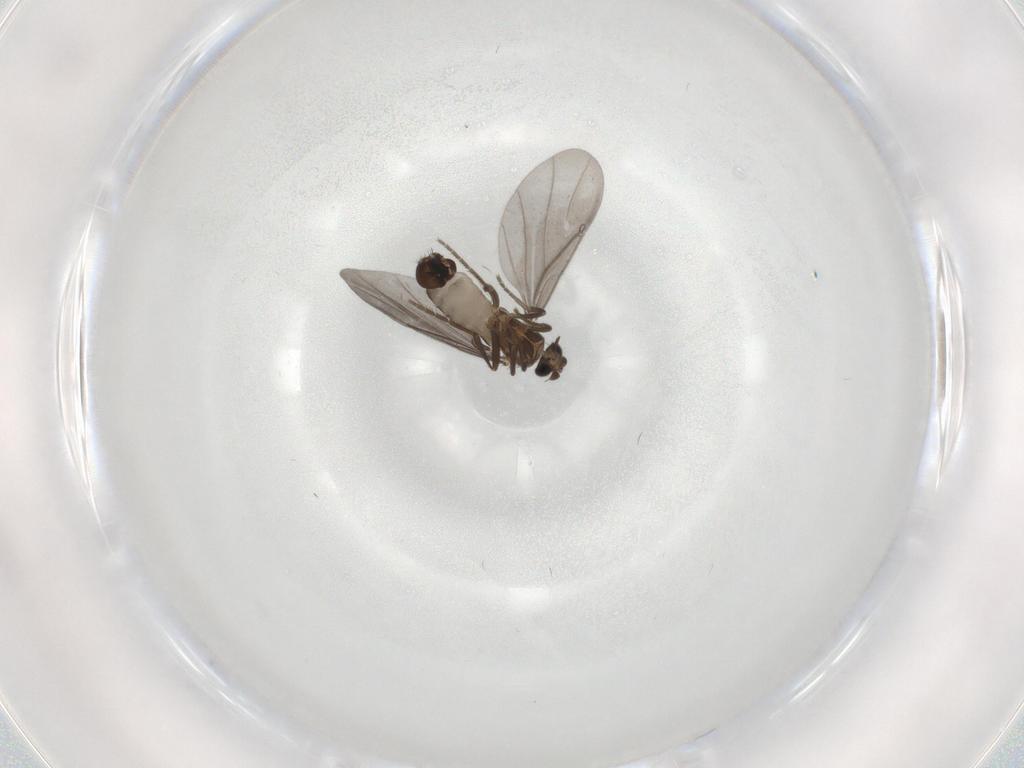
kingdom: Animalia
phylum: Arthropoda
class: Insecta
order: Diptera
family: Phoridae
